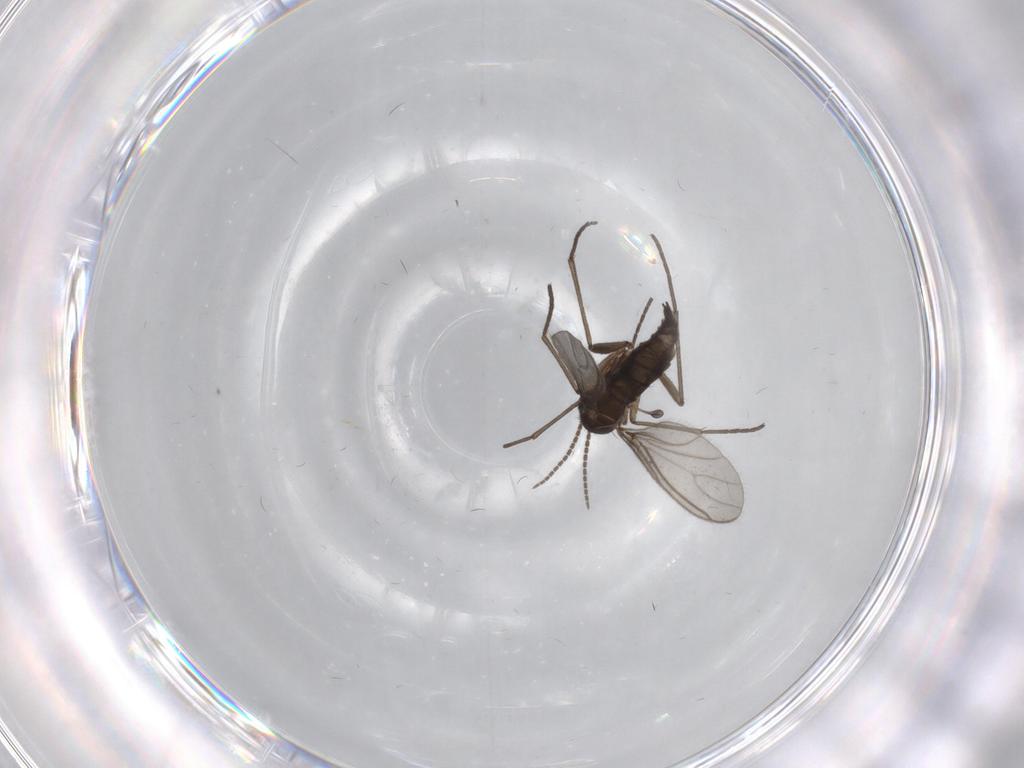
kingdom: Animalia
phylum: Arthropoda
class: Insecta
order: Diptera
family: Sciaridae
